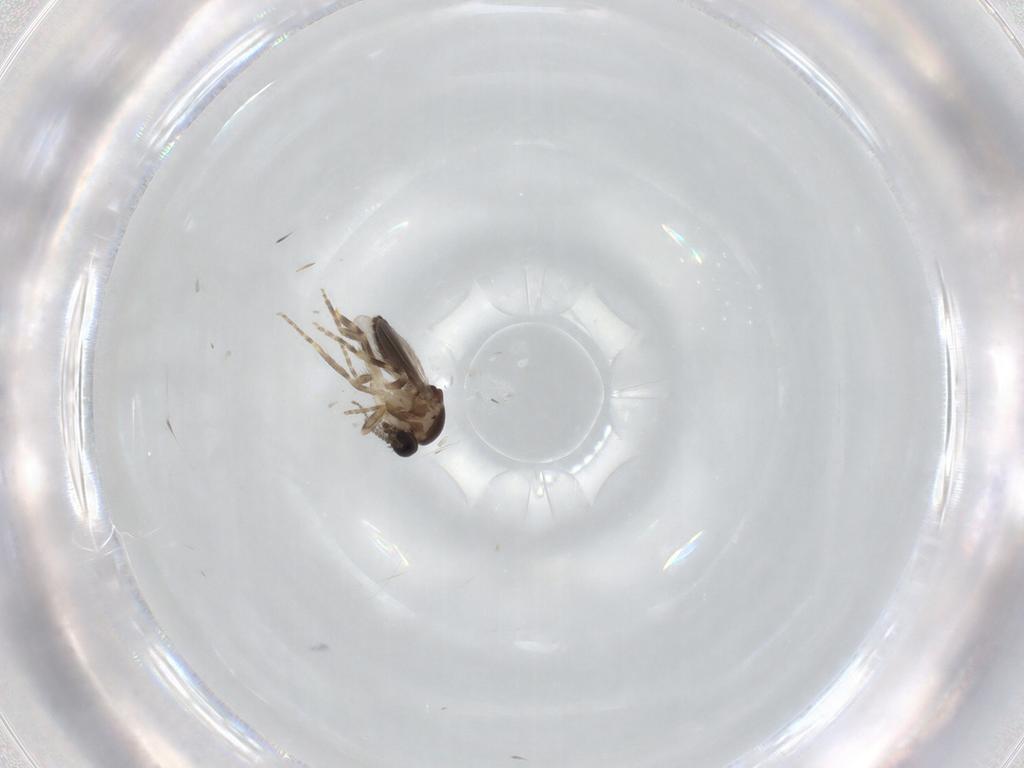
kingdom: Animalia
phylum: Arthropoda
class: Insecta
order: Diptera
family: Ceratopogonidae
